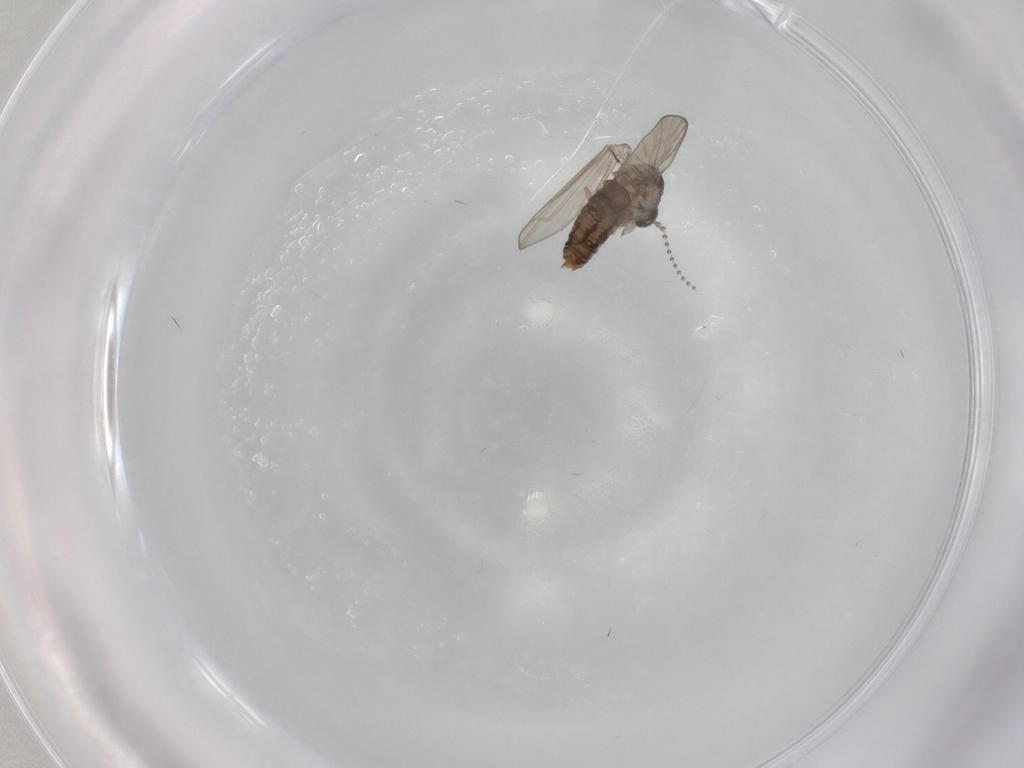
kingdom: Animalia
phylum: Arthropoda
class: Insecta
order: Diptera
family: Psychodidae
